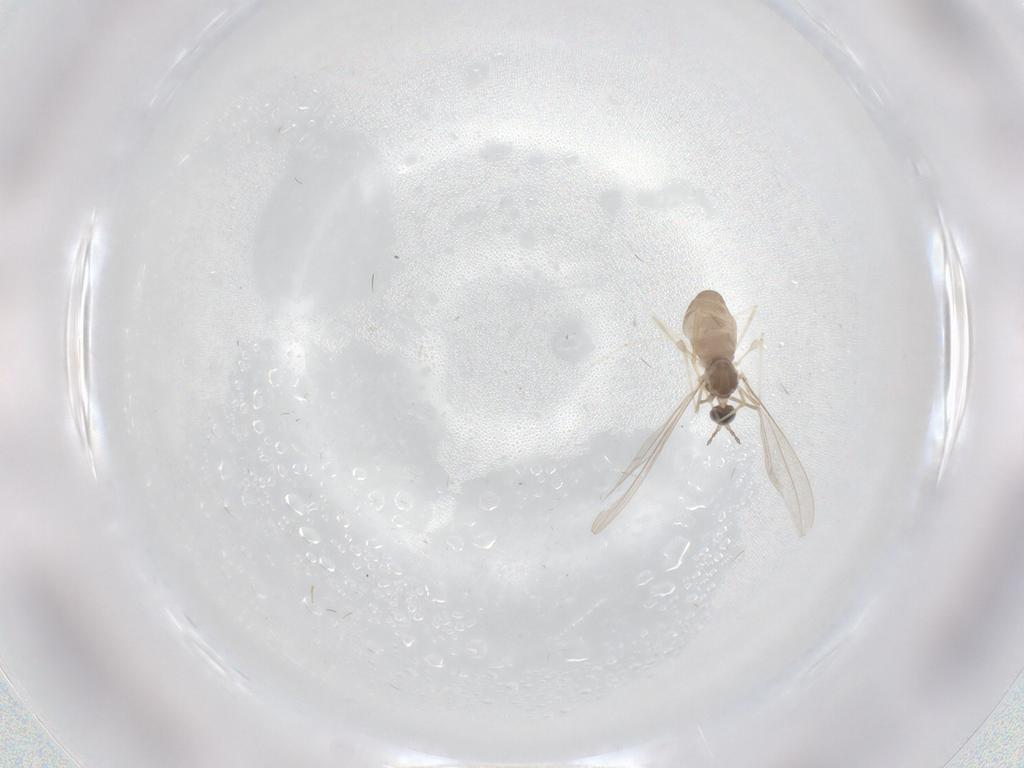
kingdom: Animalia
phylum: Arthropoda
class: Insecta
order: Diptera
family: Cecidomyiidae
